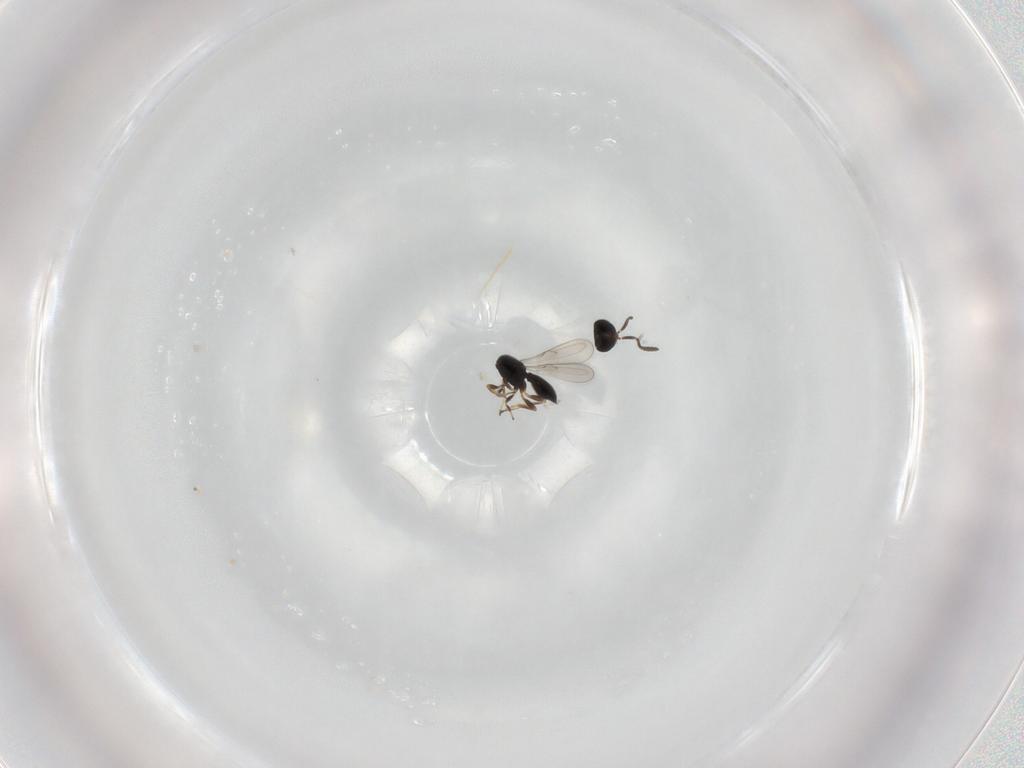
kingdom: Animalia
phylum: Arthropoda
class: Insecta
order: Hymenoptera
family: Scelionidae
